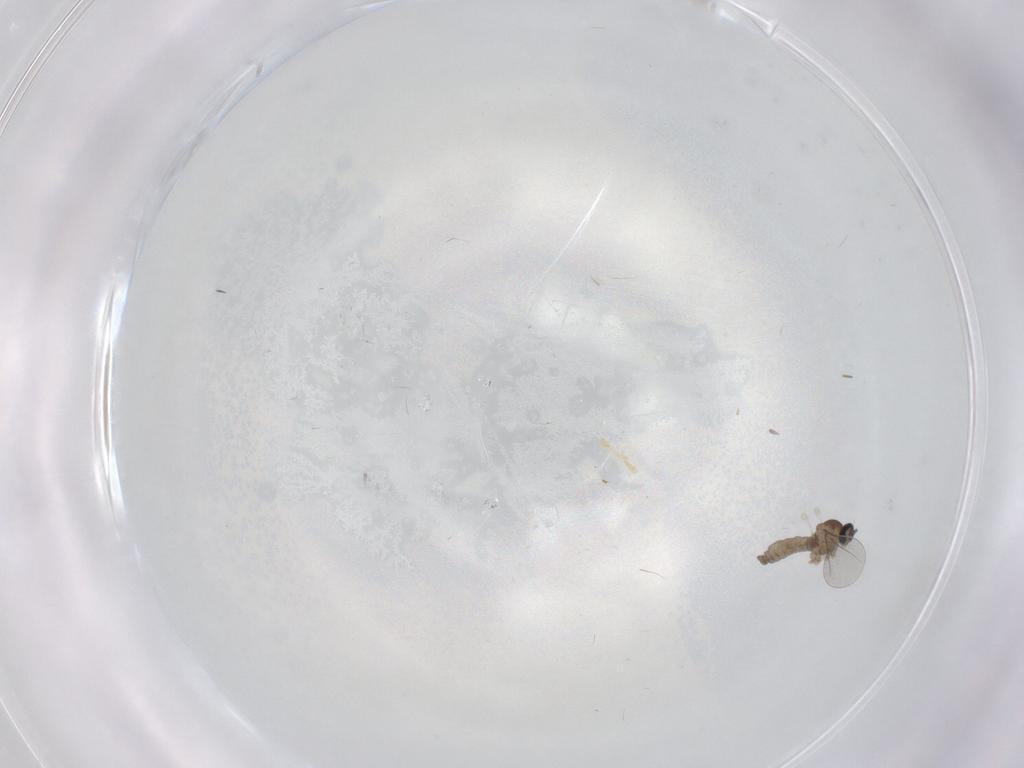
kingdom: Animalia
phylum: Arthropoda
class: Insecta
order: Diptera
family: Cecidomyiidae
